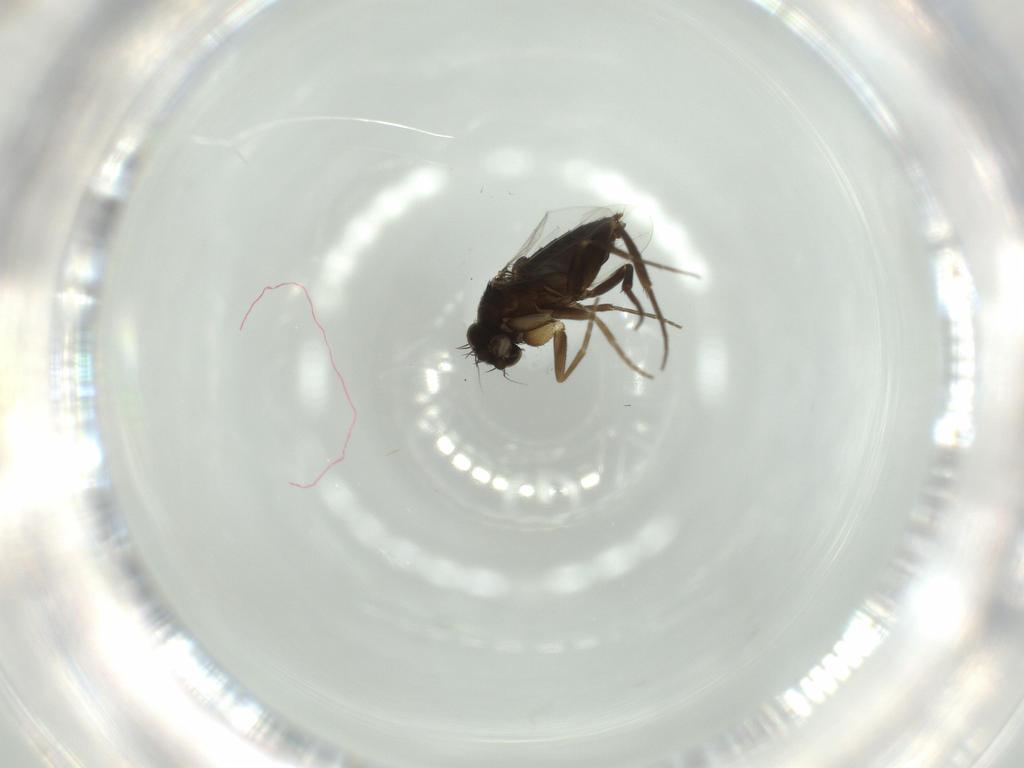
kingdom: Animalia
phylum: Arthropoda
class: Insecta
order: Diptera
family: Phoridae
